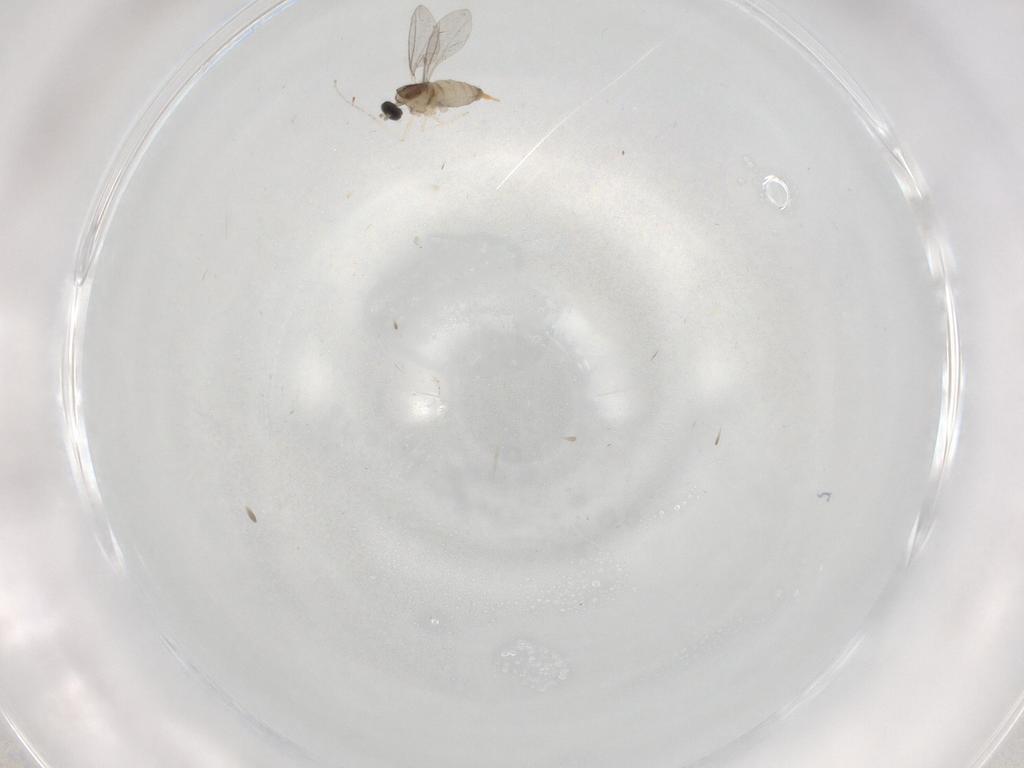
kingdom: Animalia
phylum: Arthropoda
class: Insecta
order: Diptera
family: Cecidomyiidae
